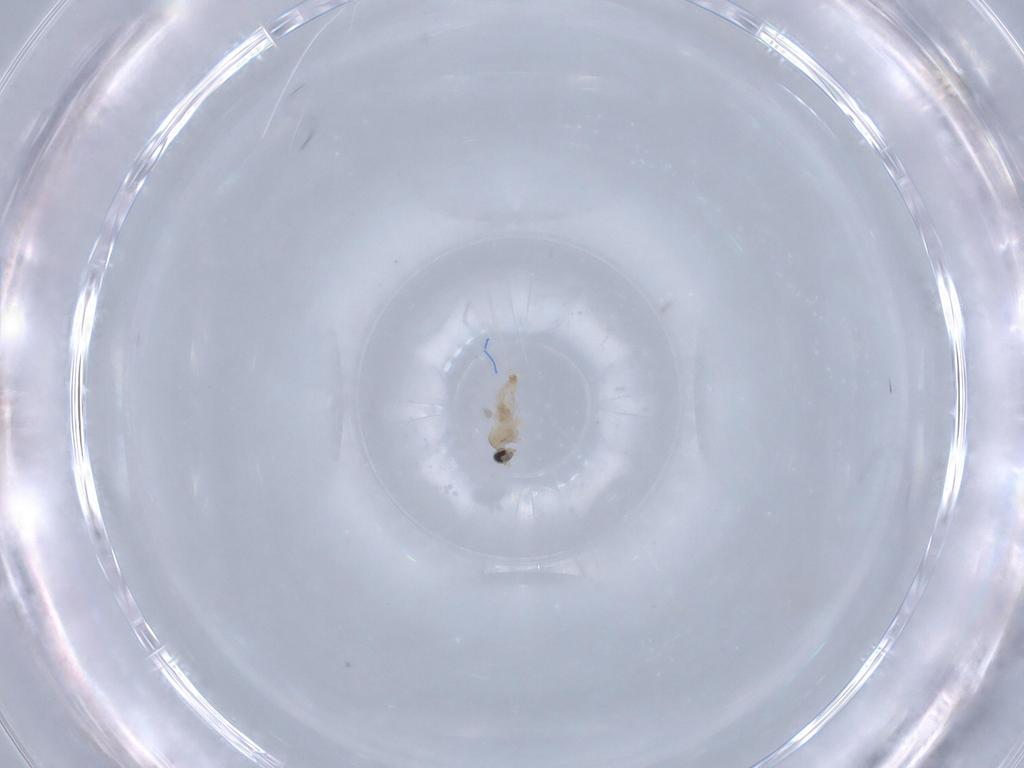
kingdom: Animalia
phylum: Arthropoda
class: Insecta
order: Diptera
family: Cecidomyiidae
